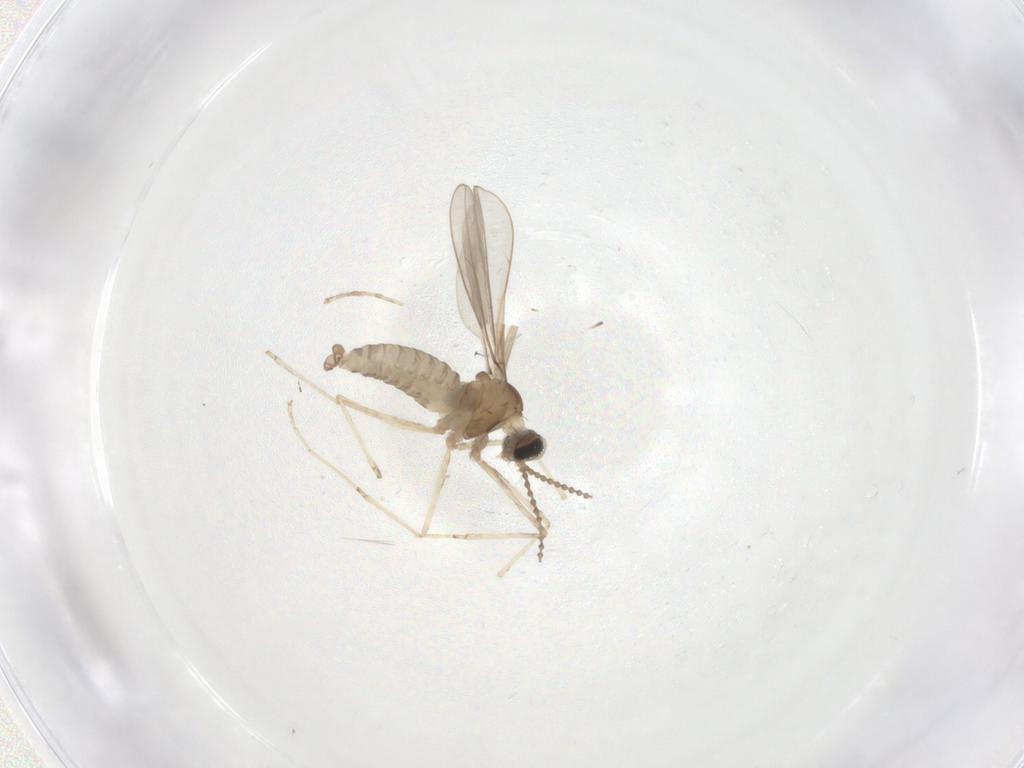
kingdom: Animalia
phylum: Arthropoda
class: Insecta
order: Diptera
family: Cecidomyiidae
